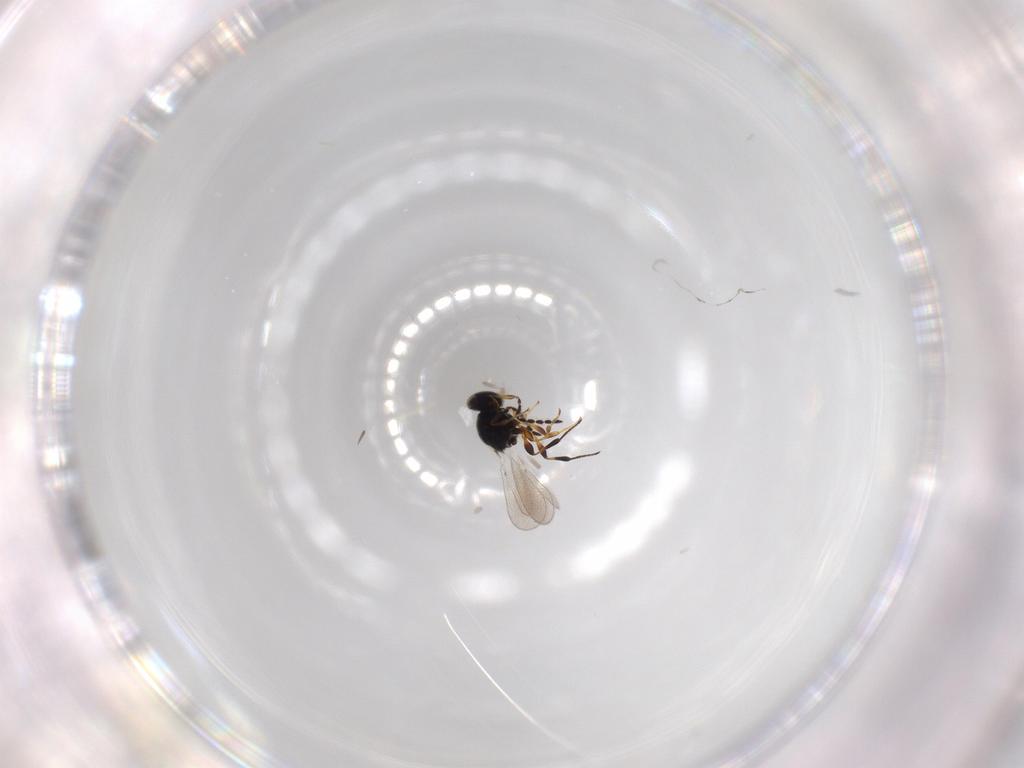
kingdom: Animalia
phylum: Arthropoda
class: Insecta
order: Hymenoptera
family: Platygastridae
